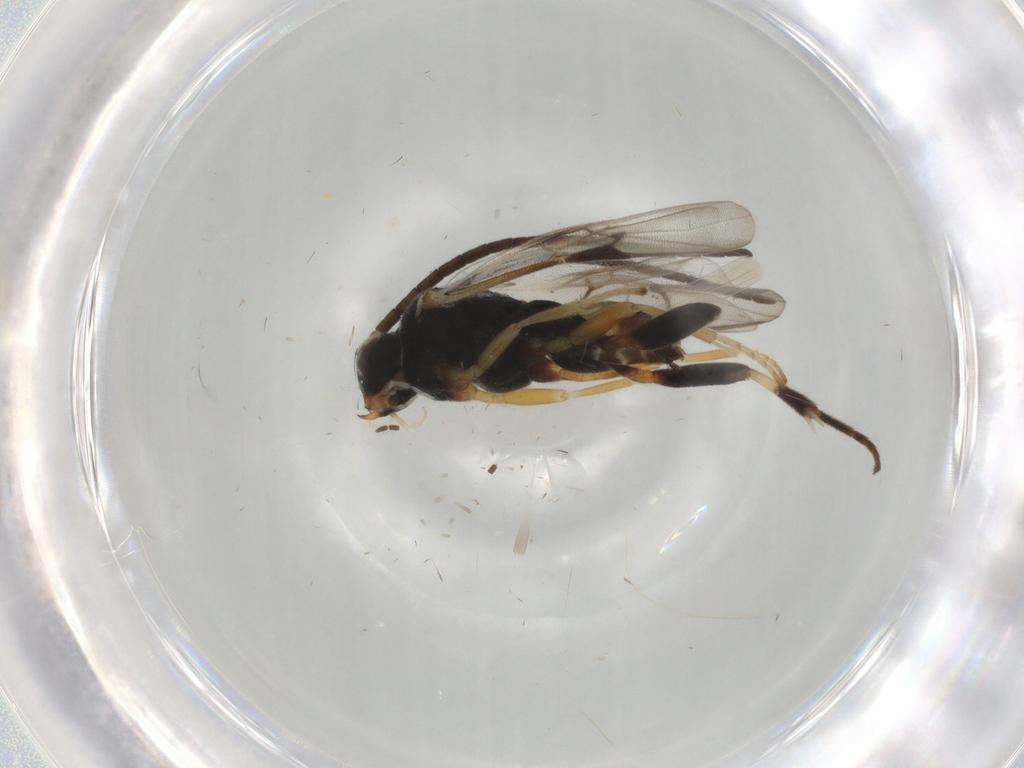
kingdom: Animalia
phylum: Arthropoda
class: Insecta
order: Hymenoptera
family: Braconidae
